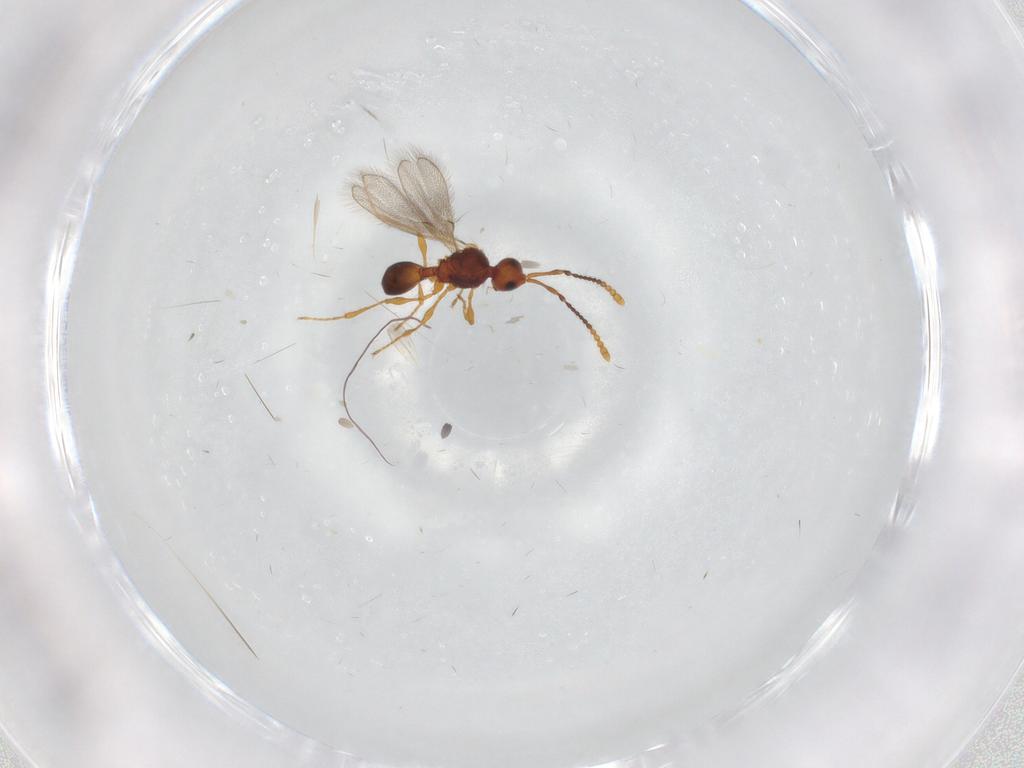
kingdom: Animalia
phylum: Arthropoda
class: Insecta
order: Hymenoptera
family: Diapriidae
